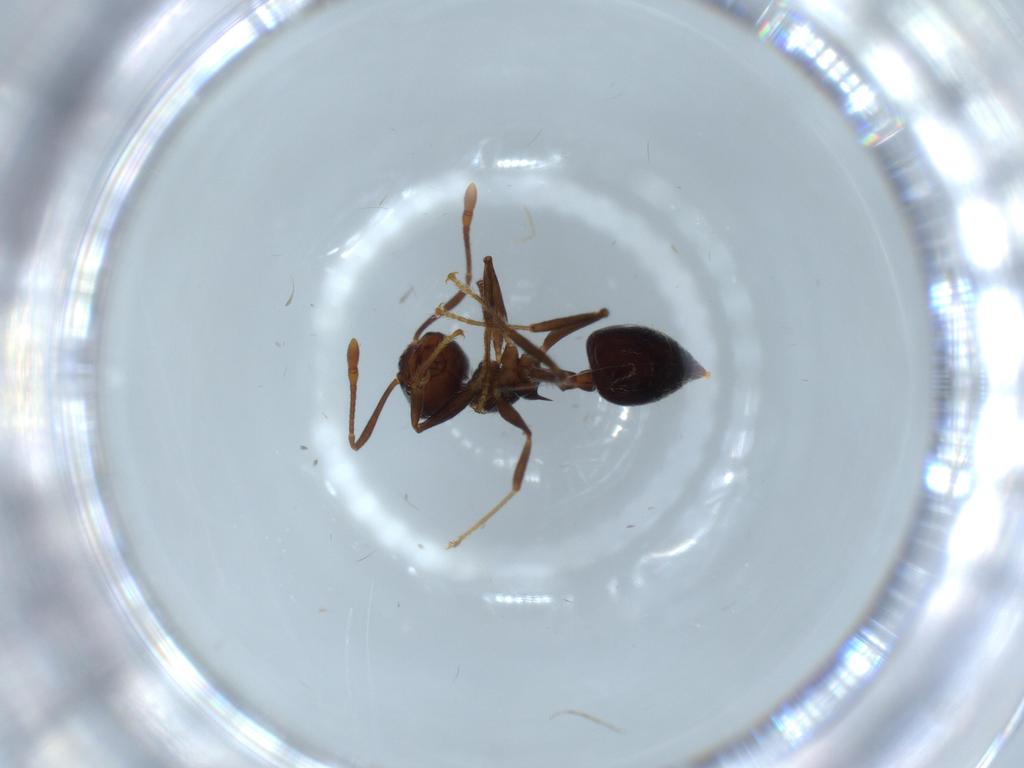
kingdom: Animalia
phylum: Arthropoda
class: Insecta
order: Hymenoptera
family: Formicidae
